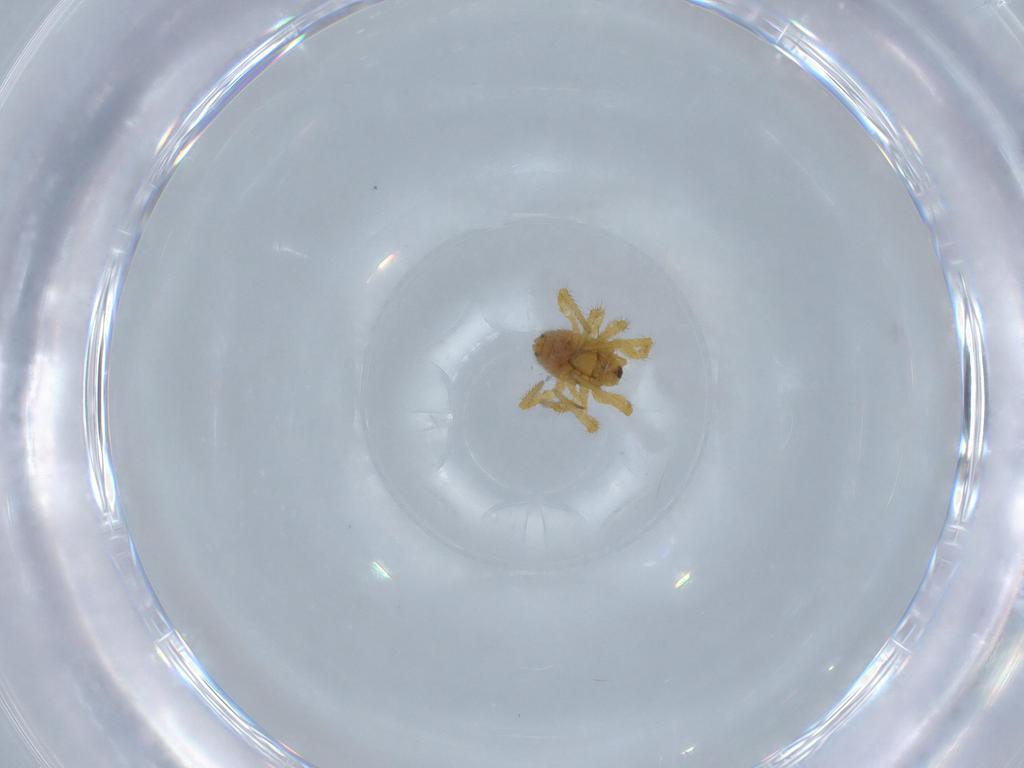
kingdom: Animalia
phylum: Arthropoda
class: Arachnida
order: Araneae
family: Theridiidae
